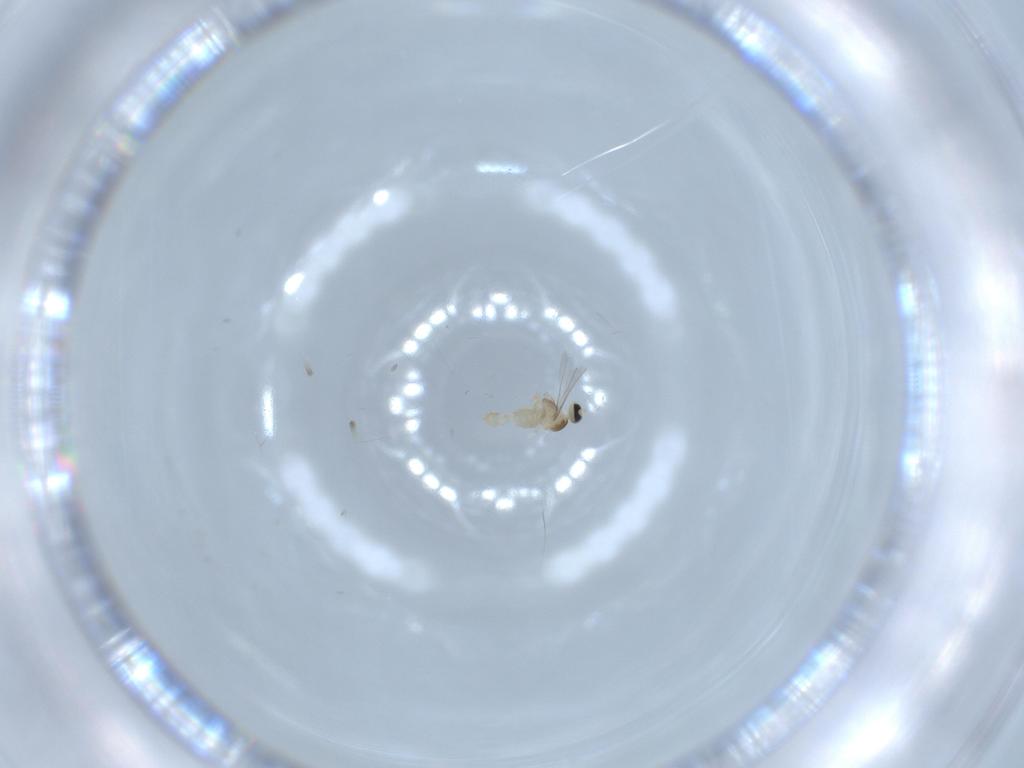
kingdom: Animalia
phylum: Arthropoda
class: Insecta
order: Diptera
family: Cecidomyiidae
